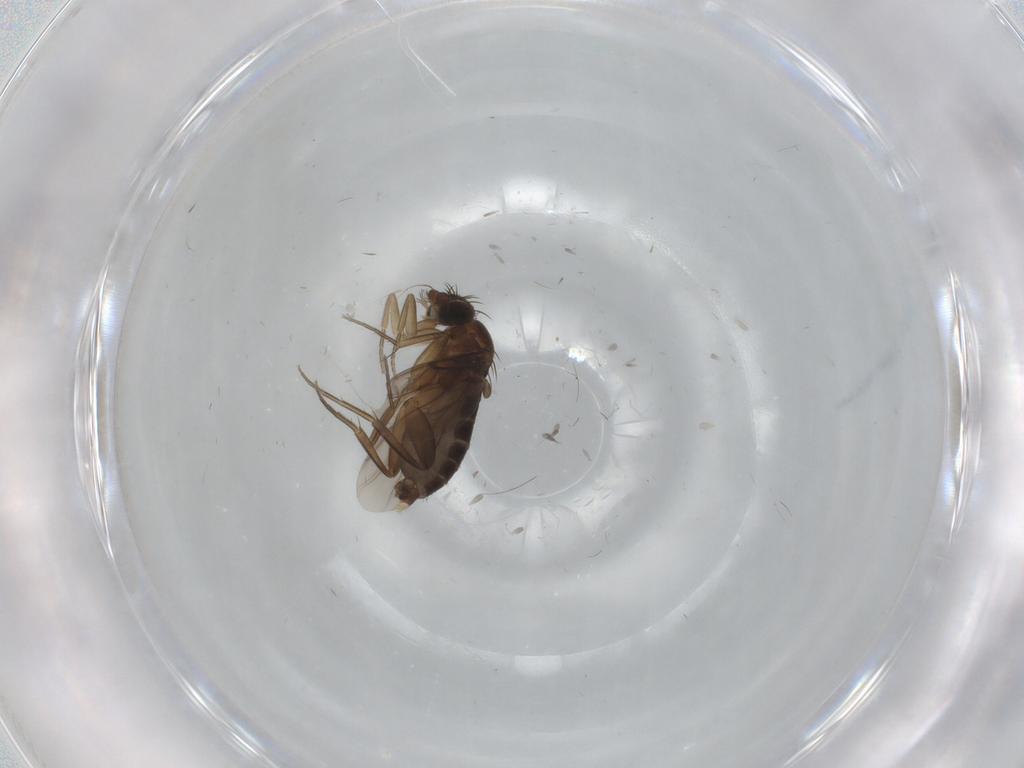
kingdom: Animalia
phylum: Arthropoda
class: Insecta
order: Diptera
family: Phoridae
